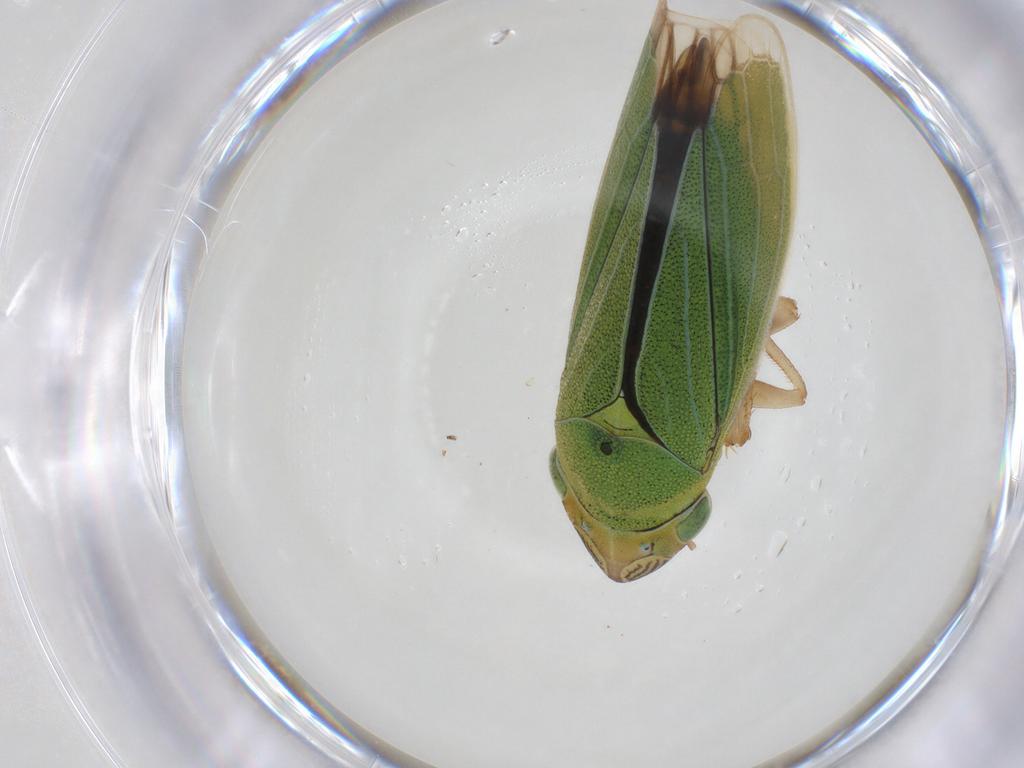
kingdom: Animalia
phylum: Arthropoda
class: Insecta
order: Hemiptera
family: Cicadellidae
